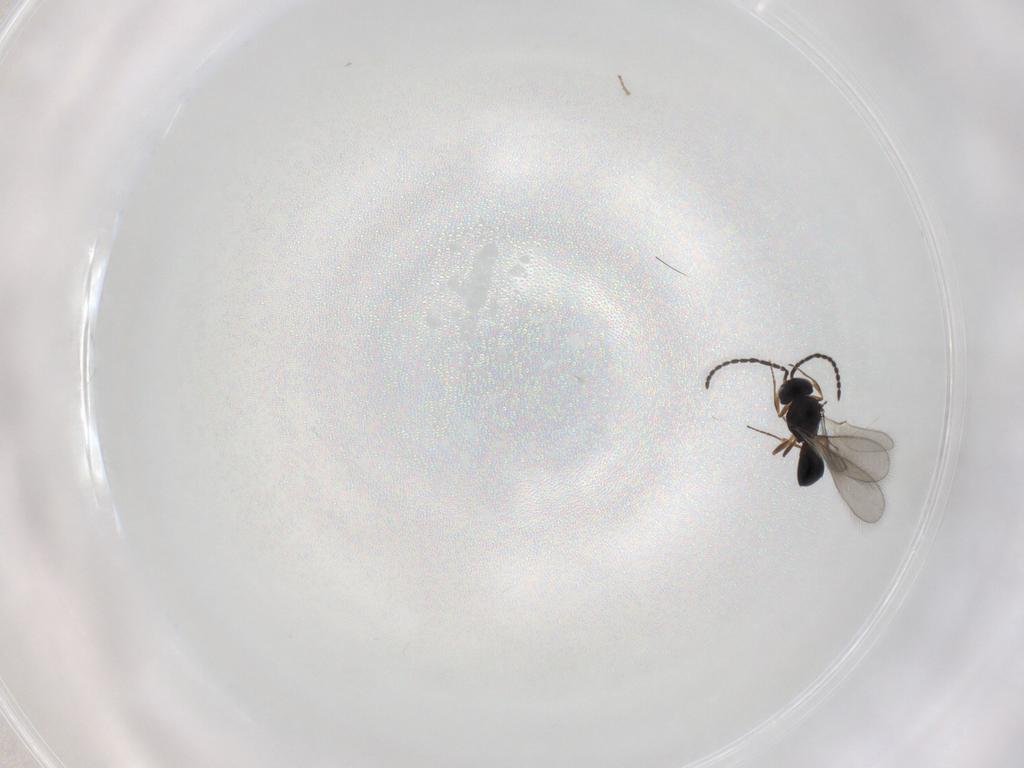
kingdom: Animalia
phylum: Arthropoda
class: Insecta
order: Hymenoptera
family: Scelionidae
